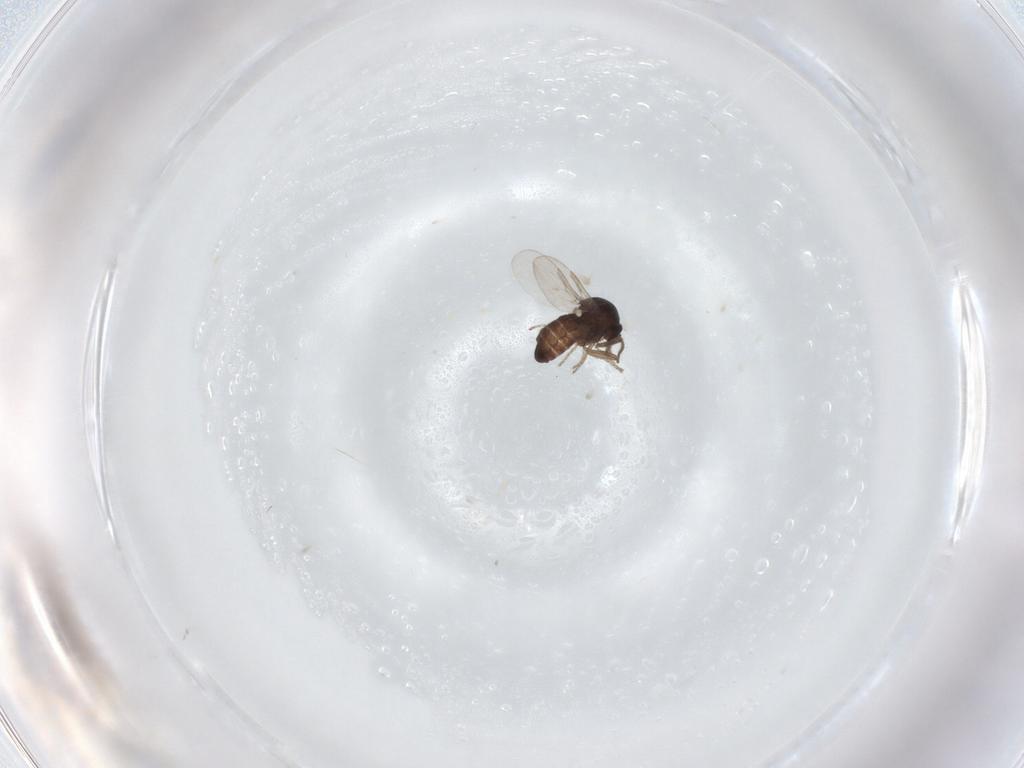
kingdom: Animalia
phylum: Arthropoda
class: Insecta
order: Diptera
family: Ceratopogonidae
